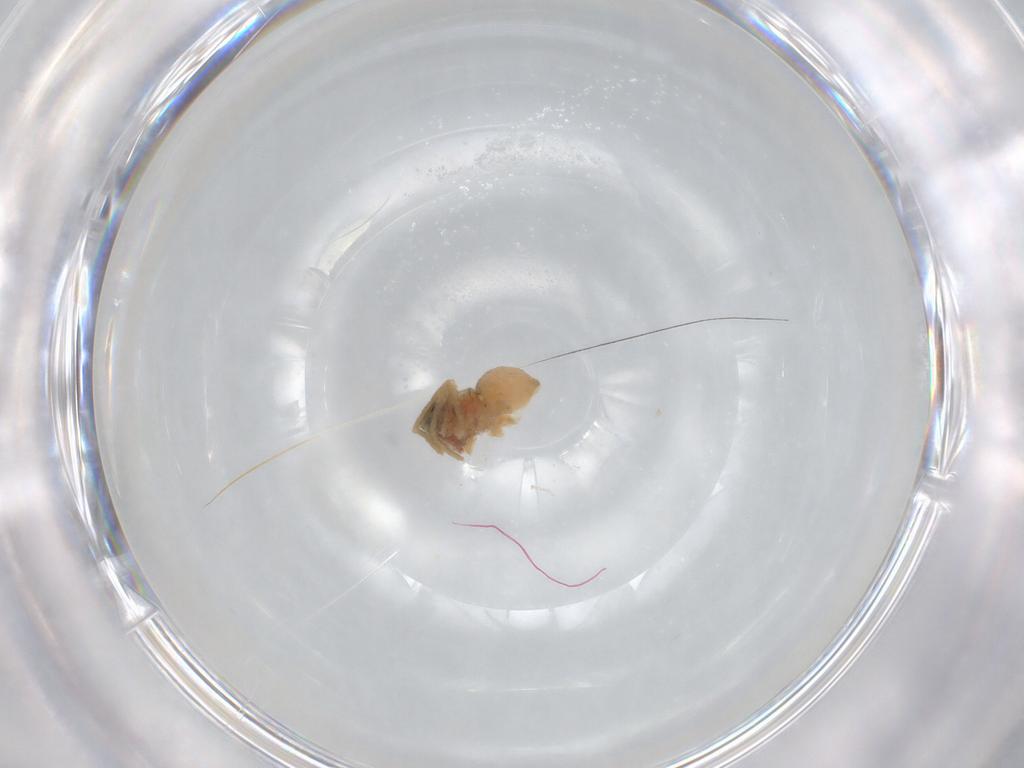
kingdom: Animalia
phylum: Arthropoda
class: Arachnida
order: Araneae
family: Lycosidae
